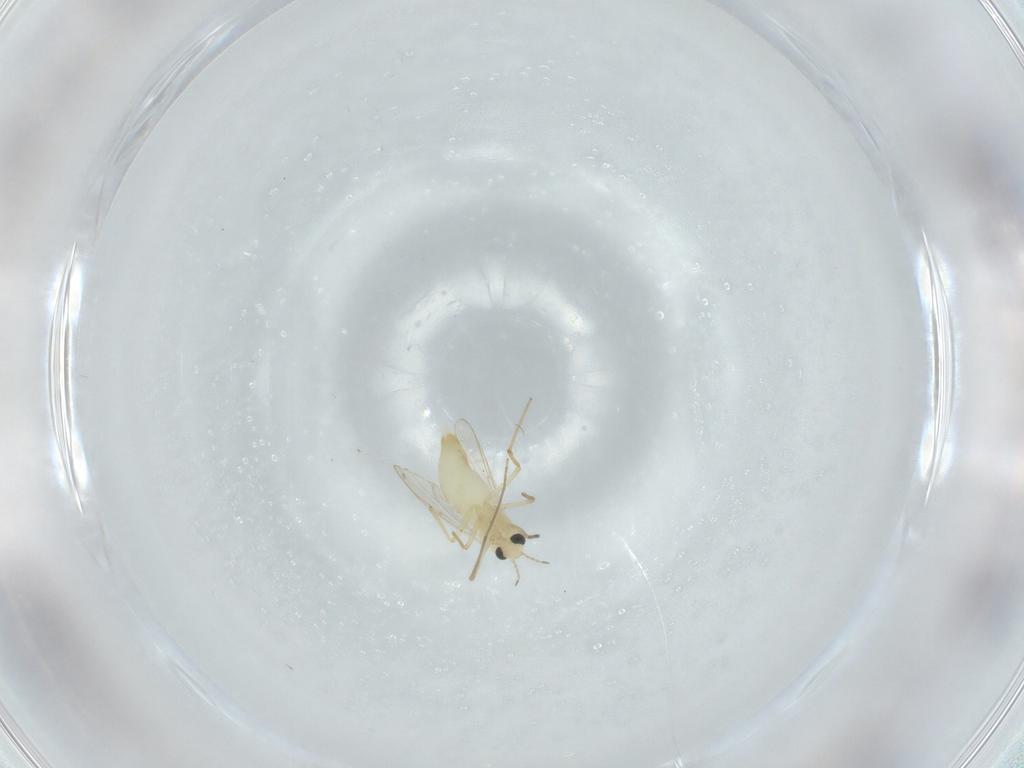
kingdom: Animalia
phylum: Arthropoda
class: Insecta
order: Diptera
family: Chironomidae
